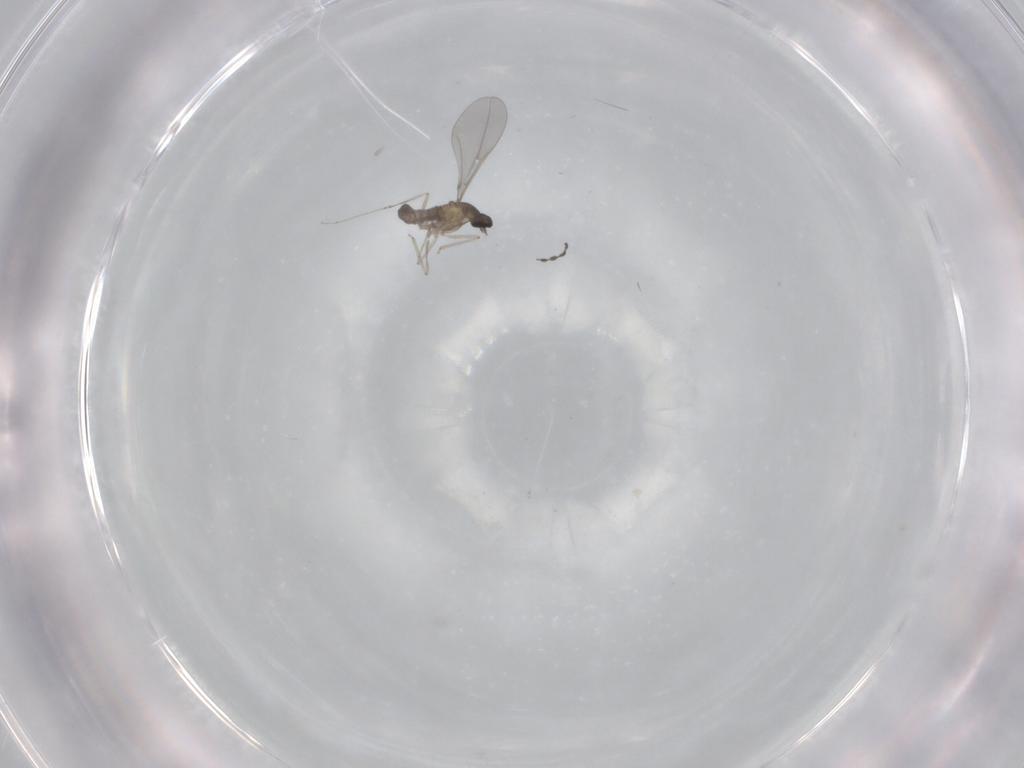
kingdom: Animalia
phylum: Arthropoda
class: Insecta
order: Diptera
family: Cecidomyiidae
